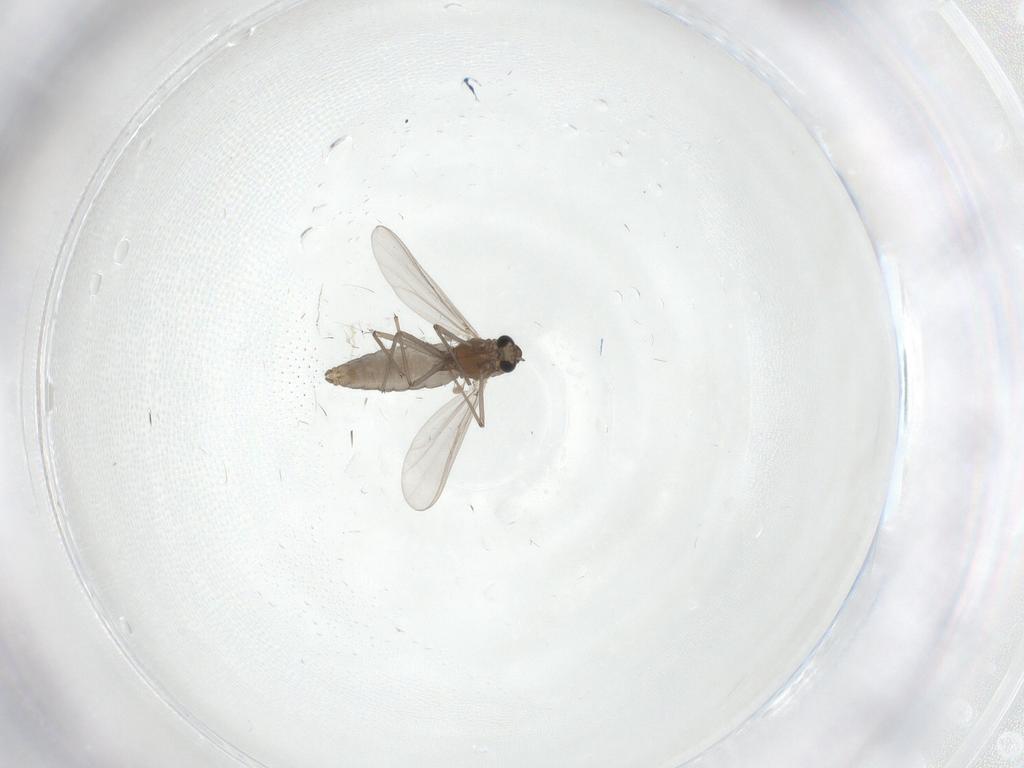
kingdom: Animalia
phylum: Arthropoda
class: Insecta
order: Diptera
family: Chironomidae
